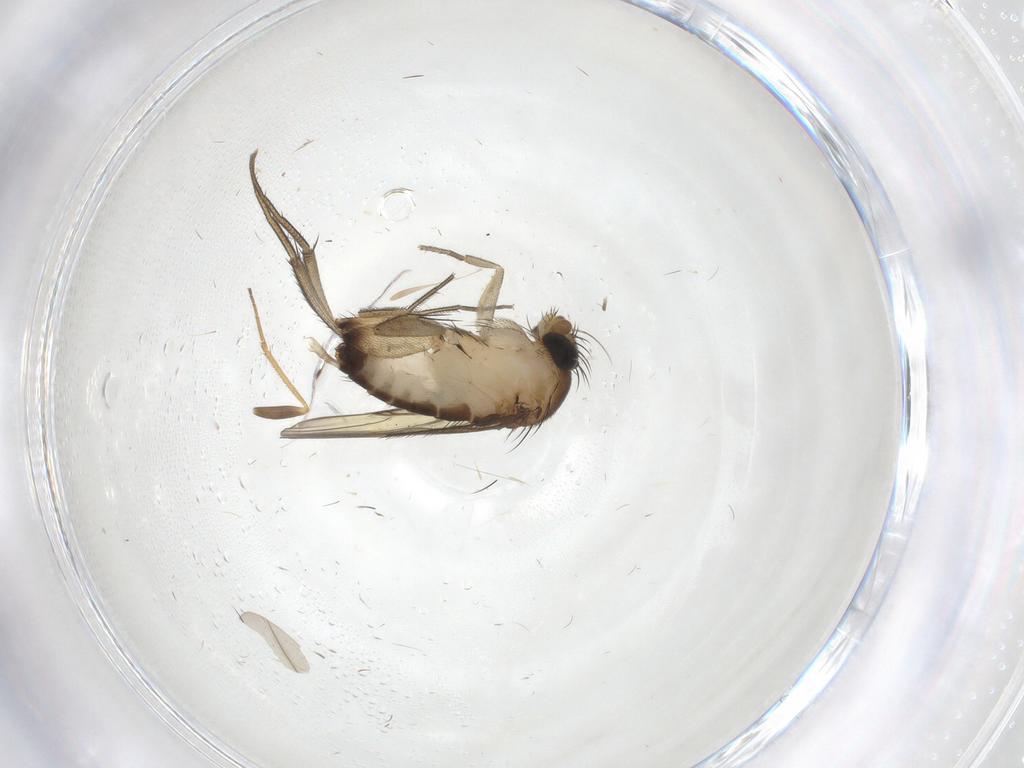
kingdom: Animalia
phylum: Arthropoda
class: Insecta
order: Diptera
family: Phoridae
